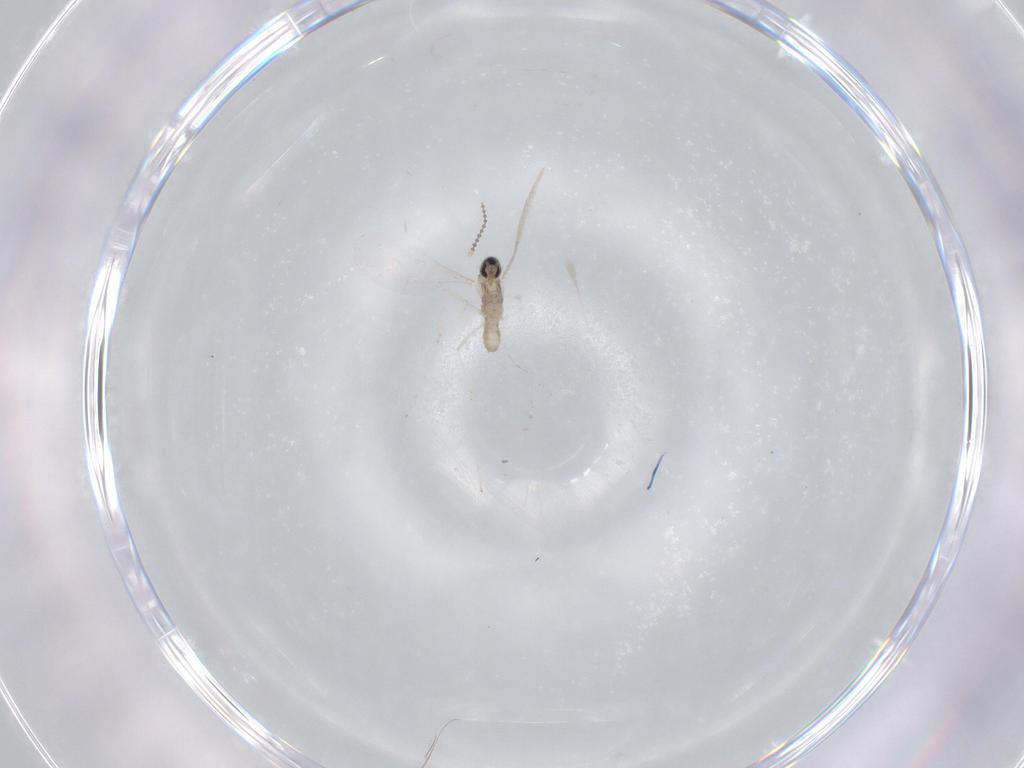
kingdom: Animalia
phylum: Arthropoda
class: Insecta
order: Diptera
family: Cecidomyiidae
